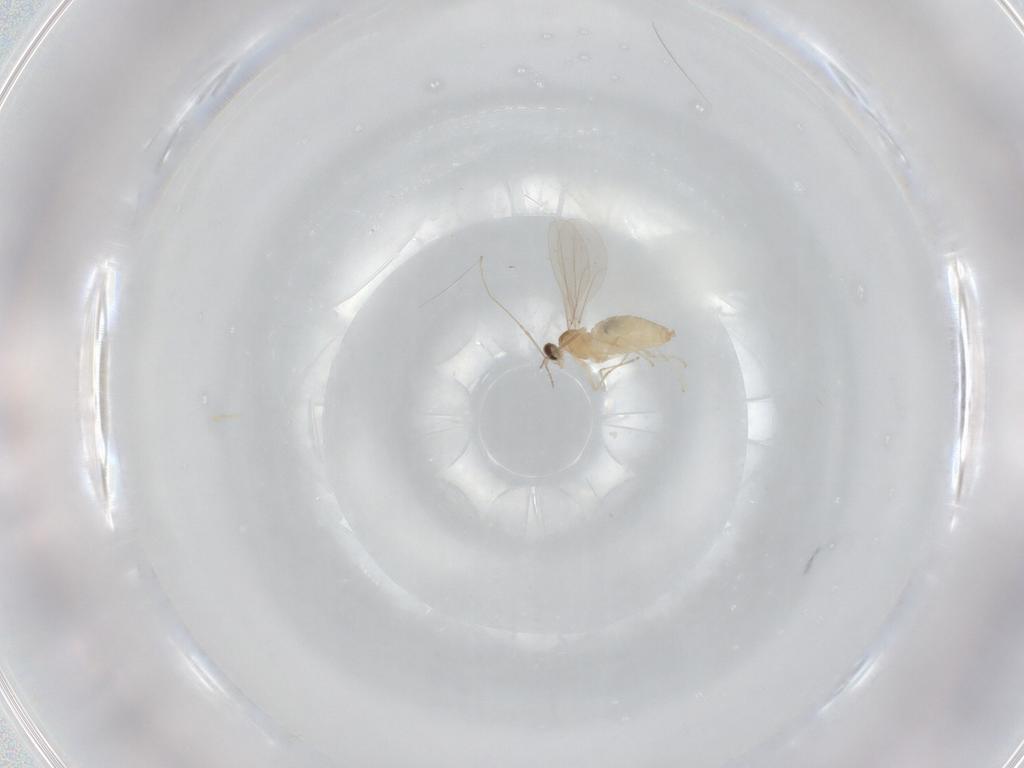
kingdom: Animalia
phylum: Arthropoda
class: Insecta
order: Diptera
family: Cecidomyiidae
